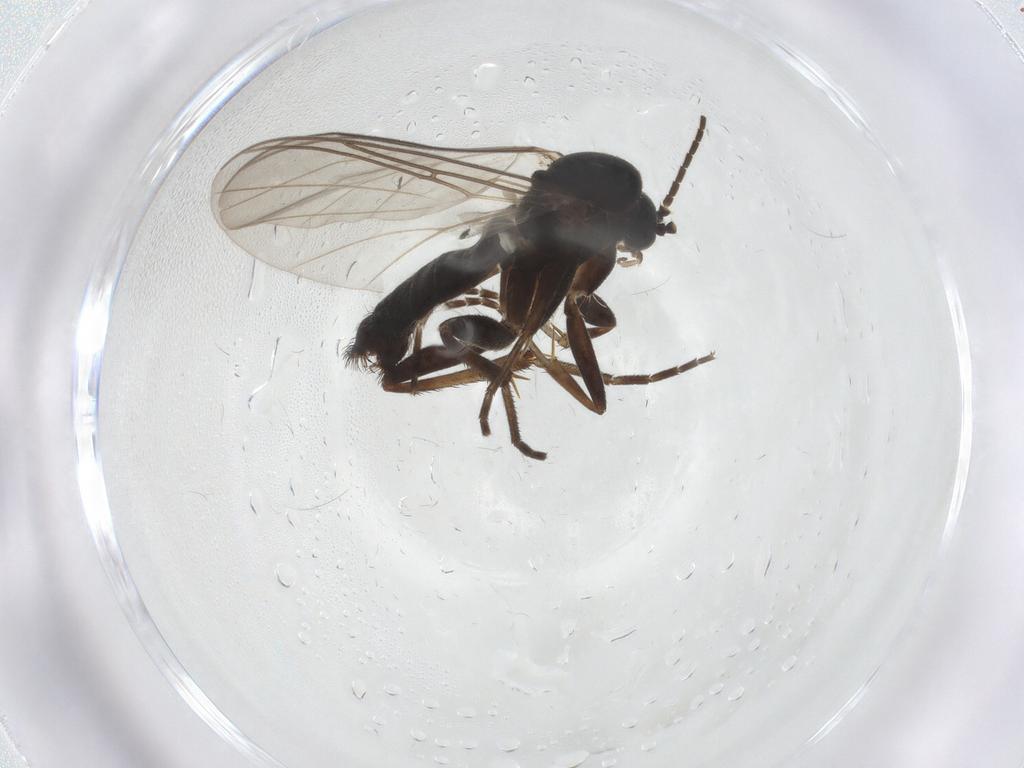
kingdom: Animalia
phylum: Arthropoda
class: Insecta
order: Diptera
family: Mycetophilidae
